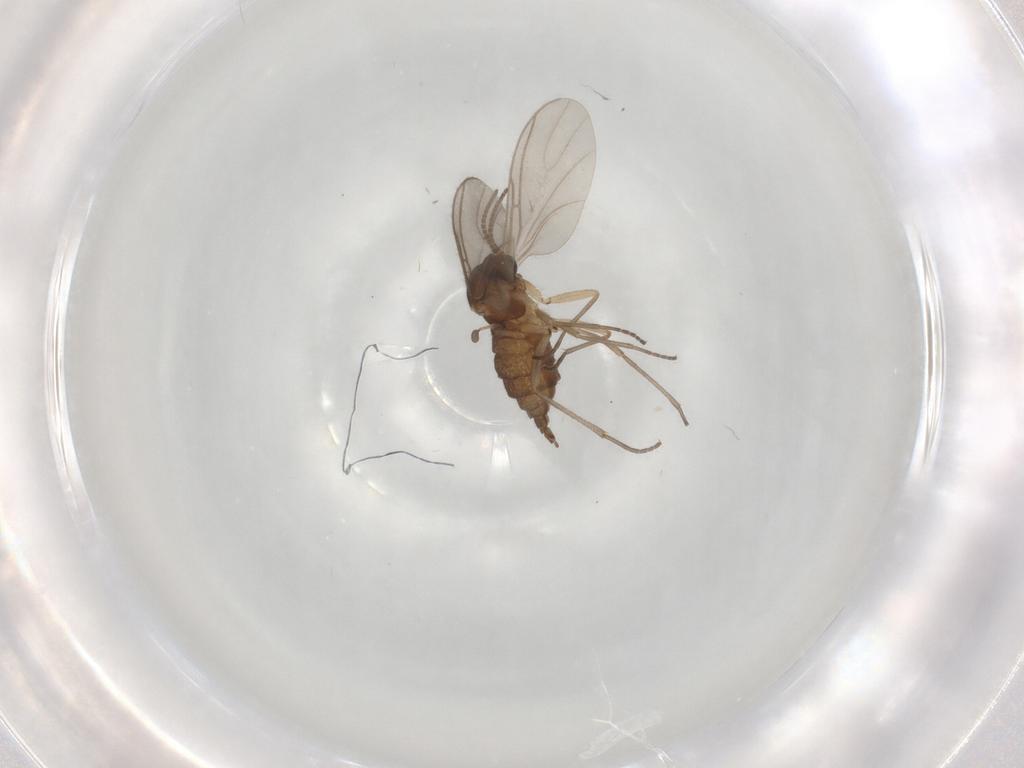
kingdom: Animalia
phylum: Arthropoda
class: Insecta
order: Diptera
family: Sciaridae
